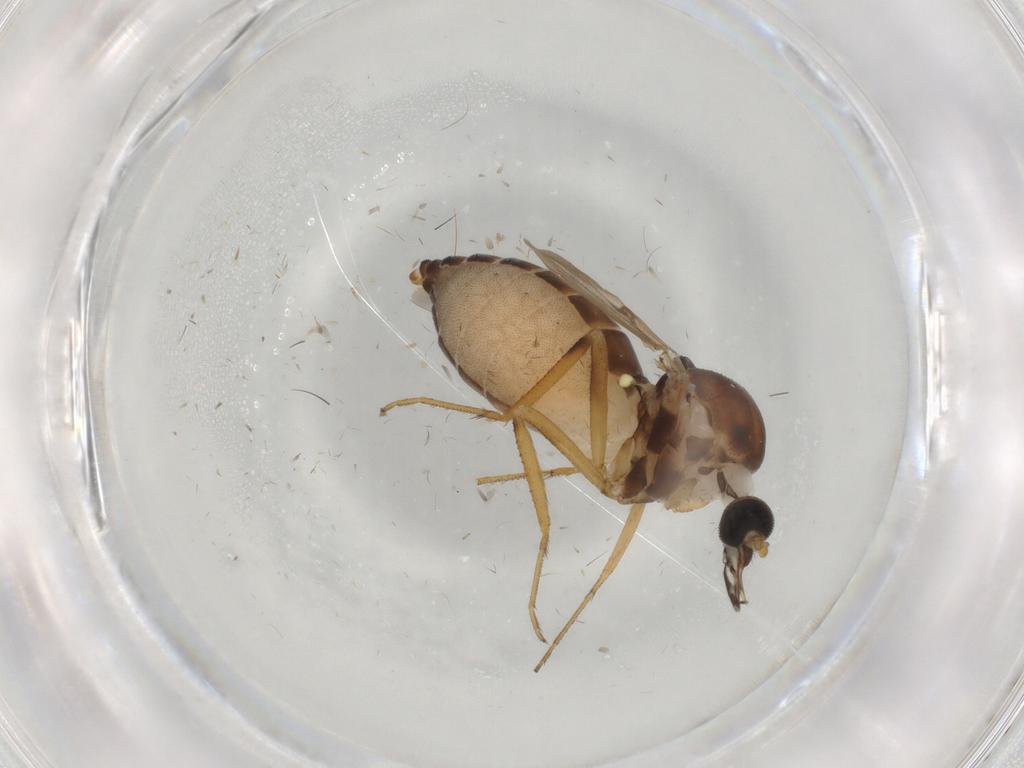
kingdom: Animalia
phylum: Arthropoda
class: Insecta
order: Diptera
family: Ceratopogonidae
